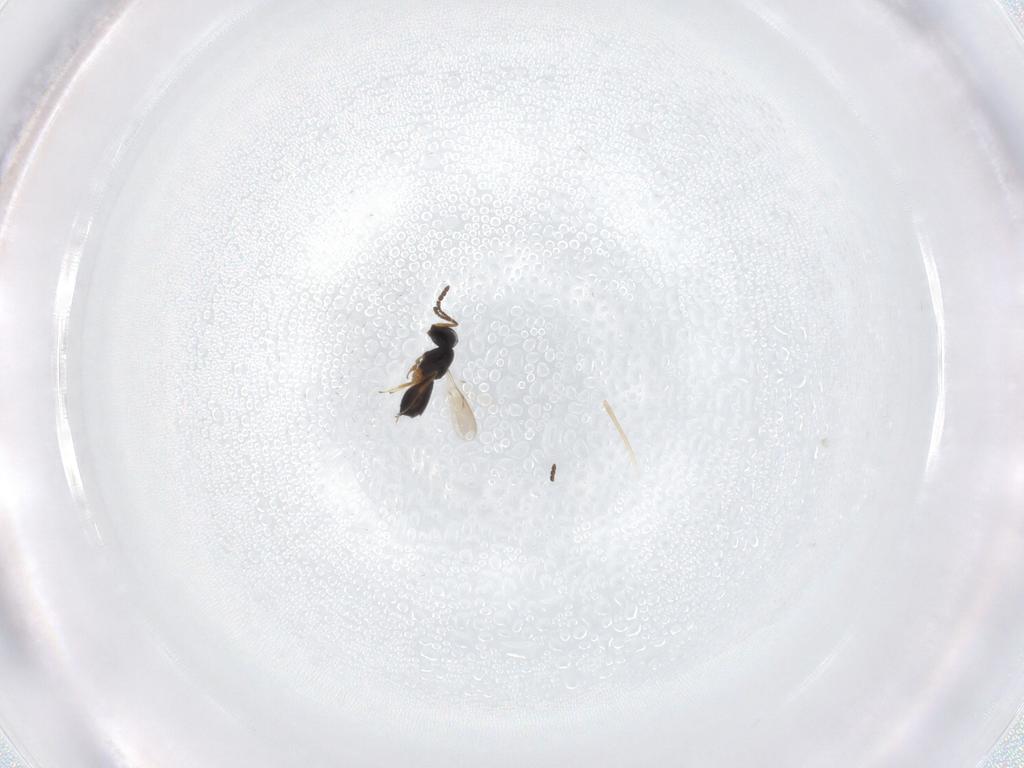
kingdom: Animalia
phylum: Arthropoda
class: Insecta
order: Hymenoptera
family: Scelionidae
